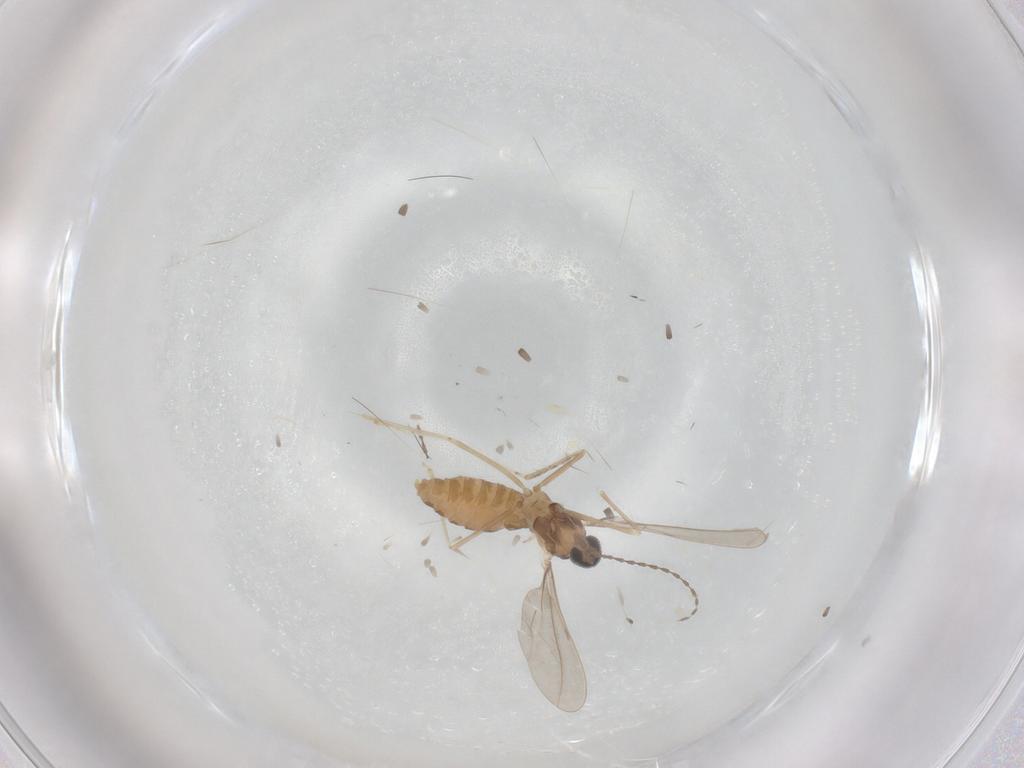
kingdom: Animalia
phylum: Arthropoda
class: Insecta
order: Diptera
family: Cecidomyiidae
